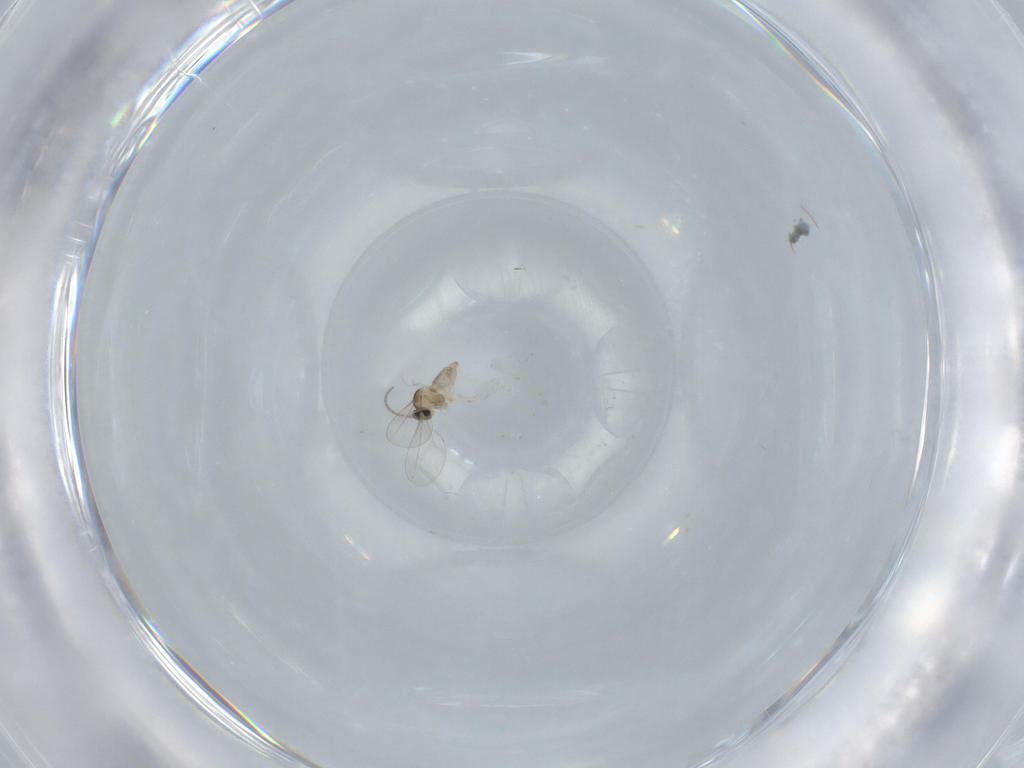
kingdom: Animalia
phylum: Arthropoda
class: Insecta
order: Diptera
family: Cecidomyiidae
